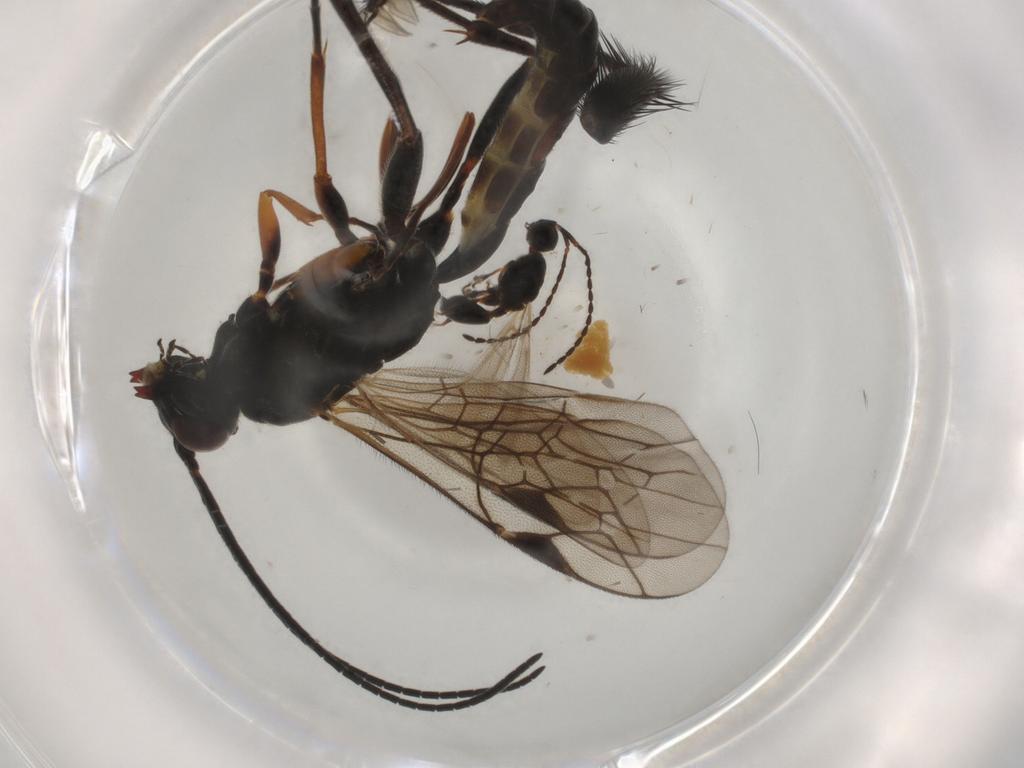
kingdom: Animalia
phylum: Arthropoda
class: Insecta
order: Hymenoptera
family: Ichneumonidae
